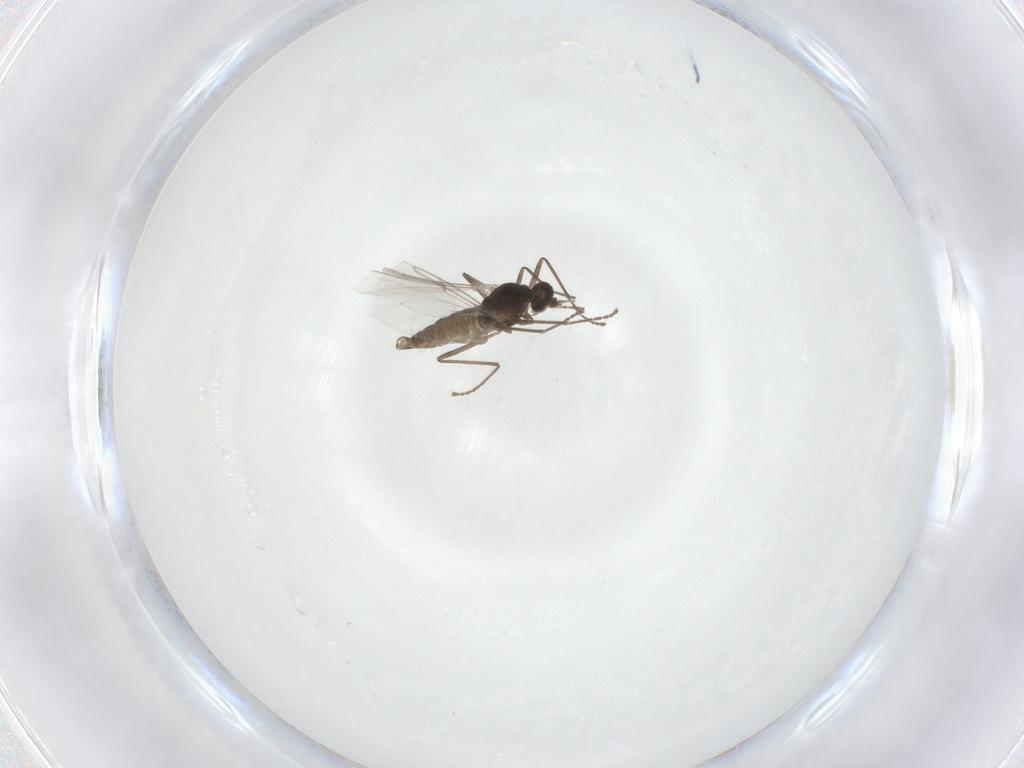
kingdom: Animalia
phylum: Arthropoda
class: Insecta
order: Diptera
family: Cecidomyiidae
